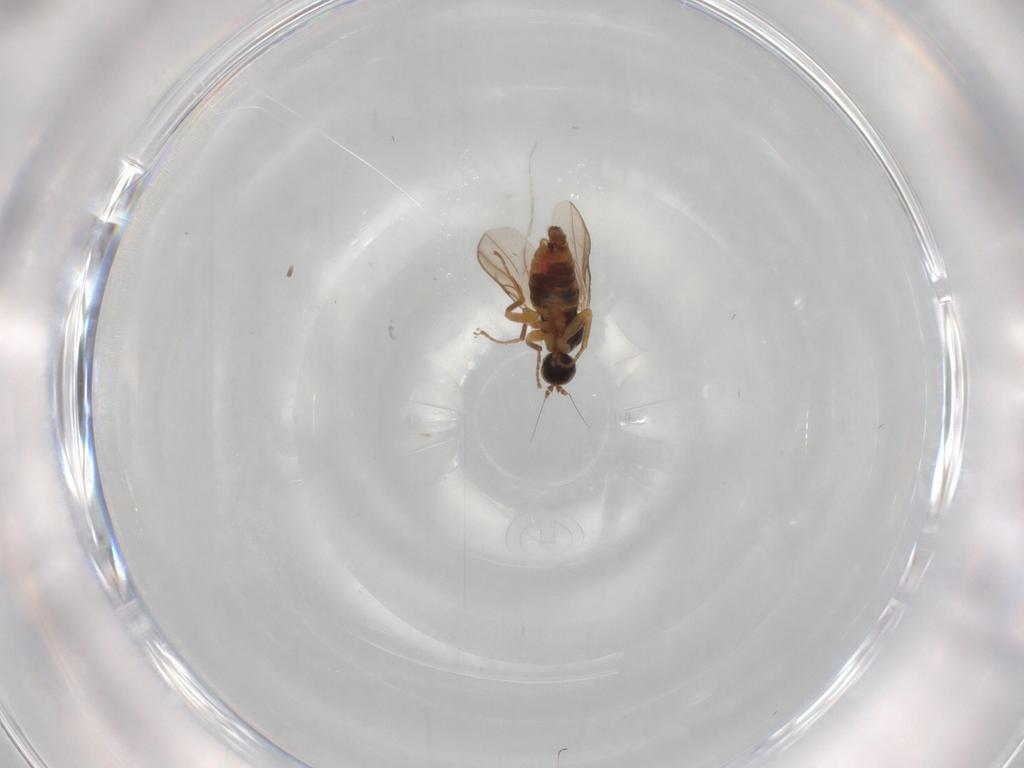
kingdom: Animalia
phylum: Arthropoda
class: Insecta
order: Diptera
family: Hybotidae
